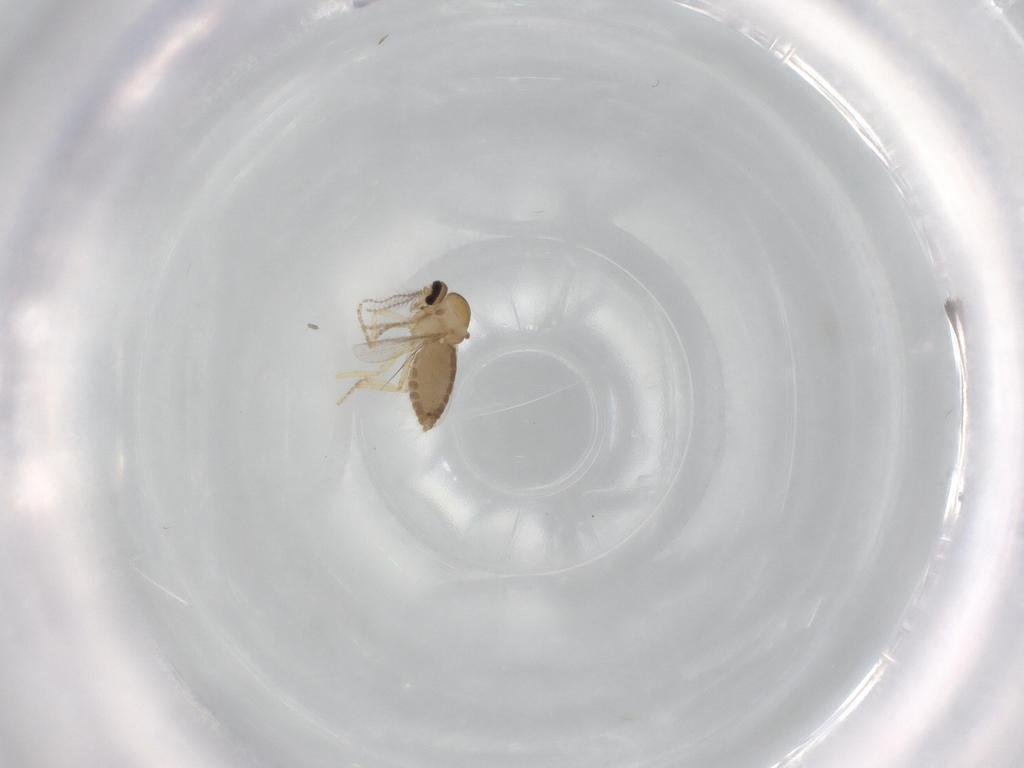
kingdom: Animalia
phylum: Arthropoda
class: Insecta
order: Diptera
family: Ceratopogonidae
